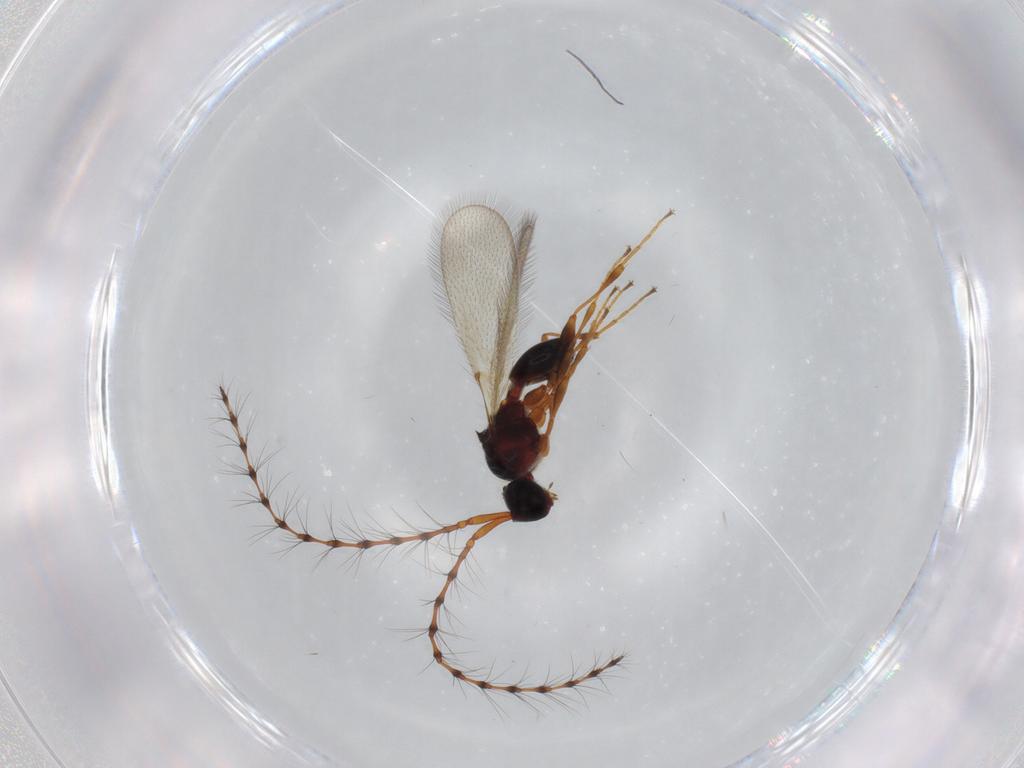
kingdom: Animalia
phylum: Arthropoda
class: Insecta
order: Hymenoptera
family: Diapriidae
